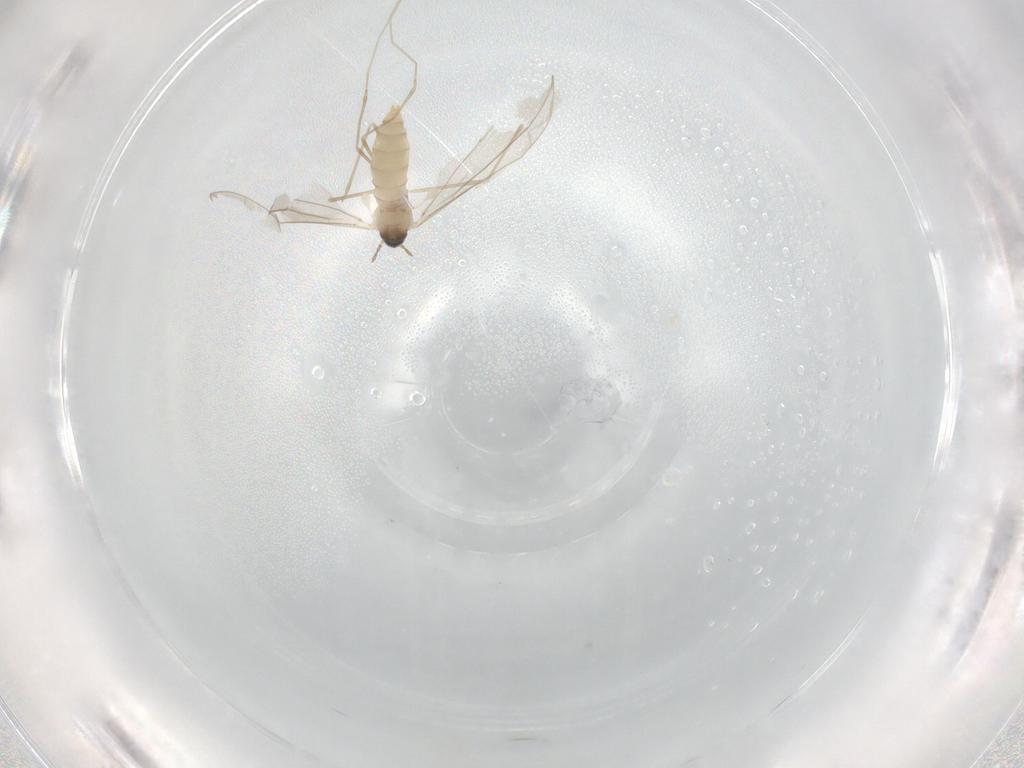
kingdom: Animalia
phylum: Arthropoda
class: Insecta
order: Diptera
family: Cecidomyiidae
